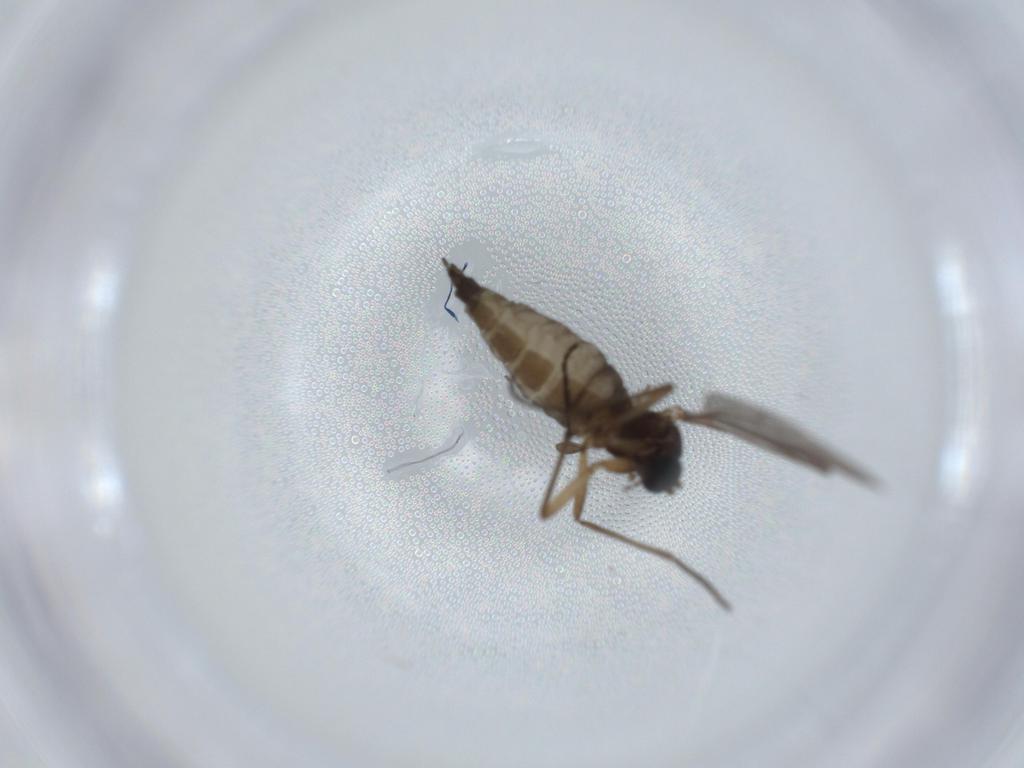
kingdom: Animalia
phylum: Arthropoda
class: Insecta
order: Diptera
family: Sciaridae
